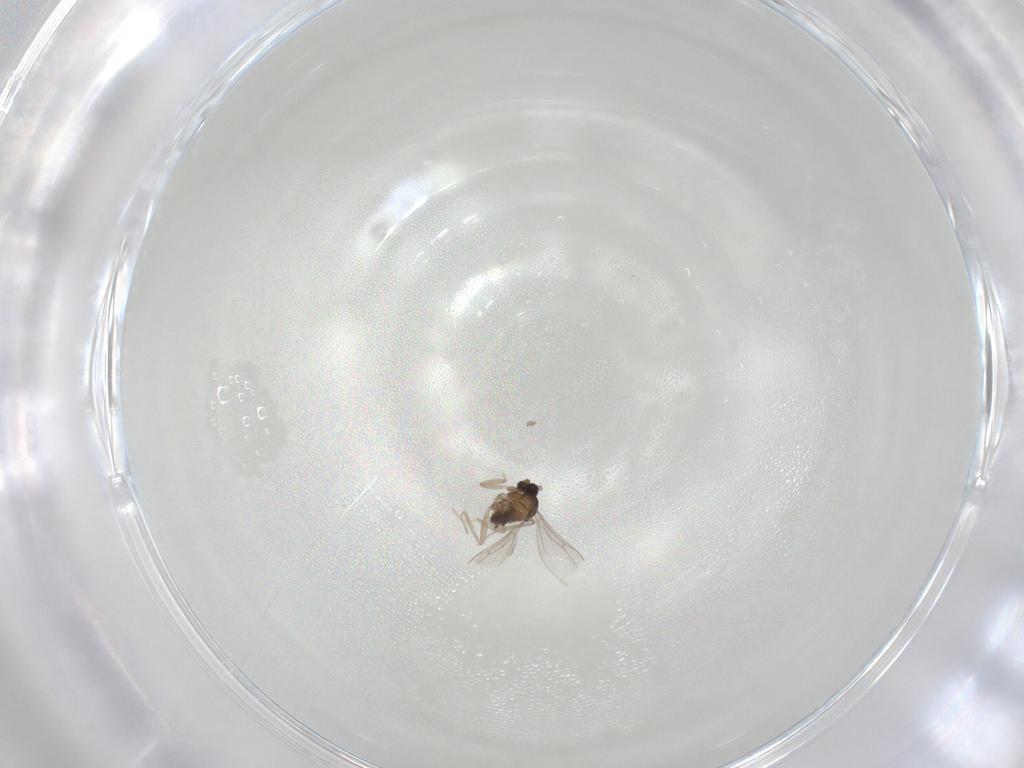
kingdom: Animalia
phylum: Arthropoda
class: Insecta
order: Diptera
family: Cecidomyiidae
